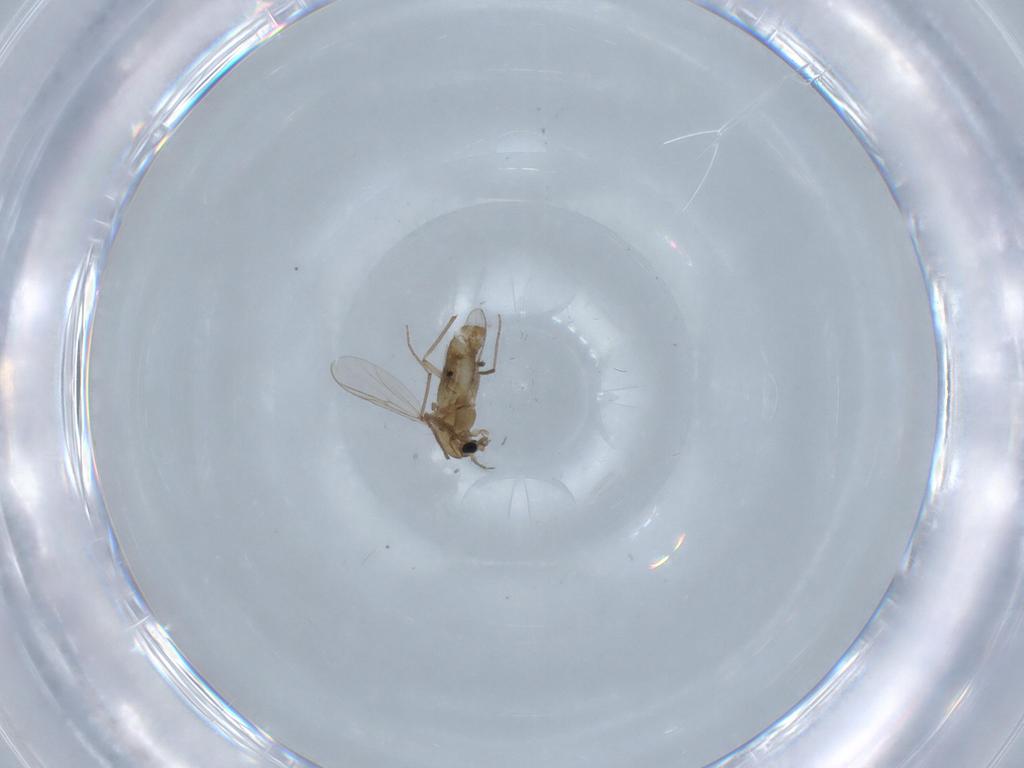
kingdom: Animalia
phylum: Arthropoda
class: Insecta
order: Diptera
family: Chironomidae
